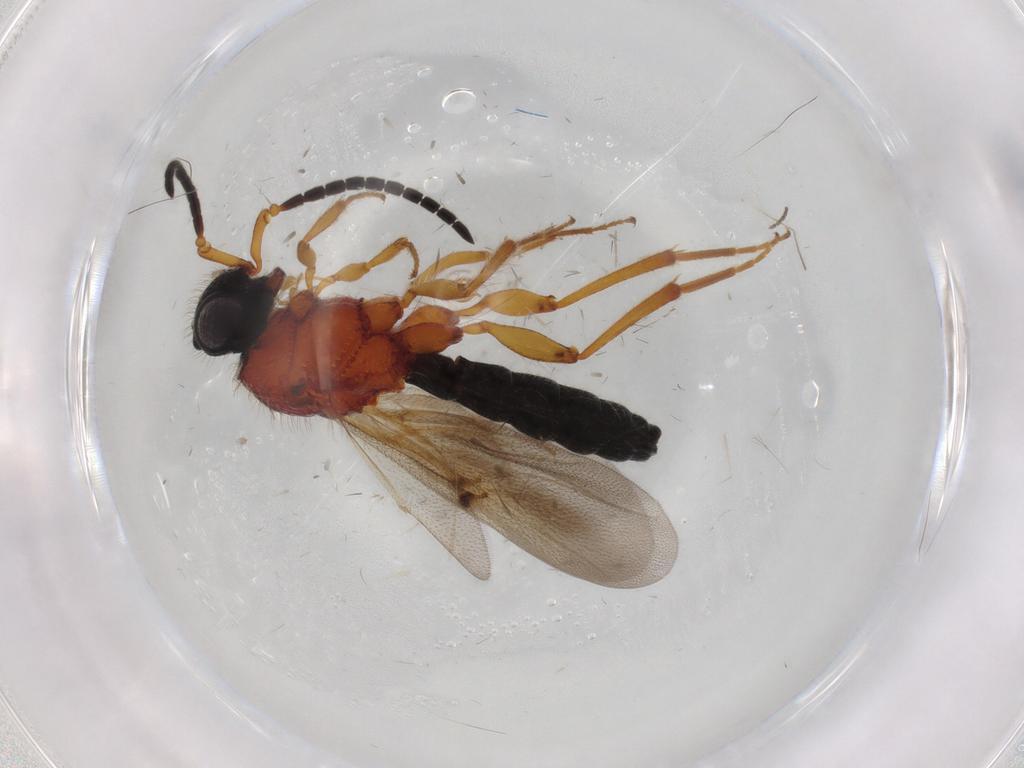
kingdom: Animalia
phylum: Arthropoda
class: Insecta
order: Hymenoptera
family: Scelionidae
